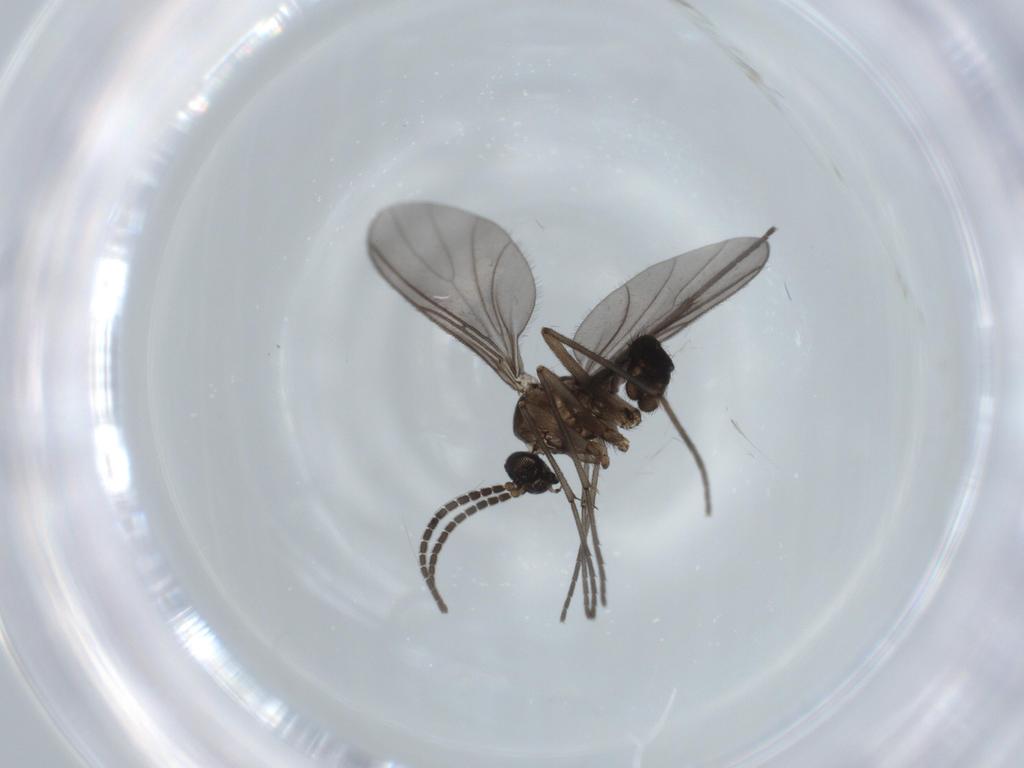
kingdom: Animalia
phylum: Arthropoda
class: Insecta
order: Diptera
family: Sciaridae
